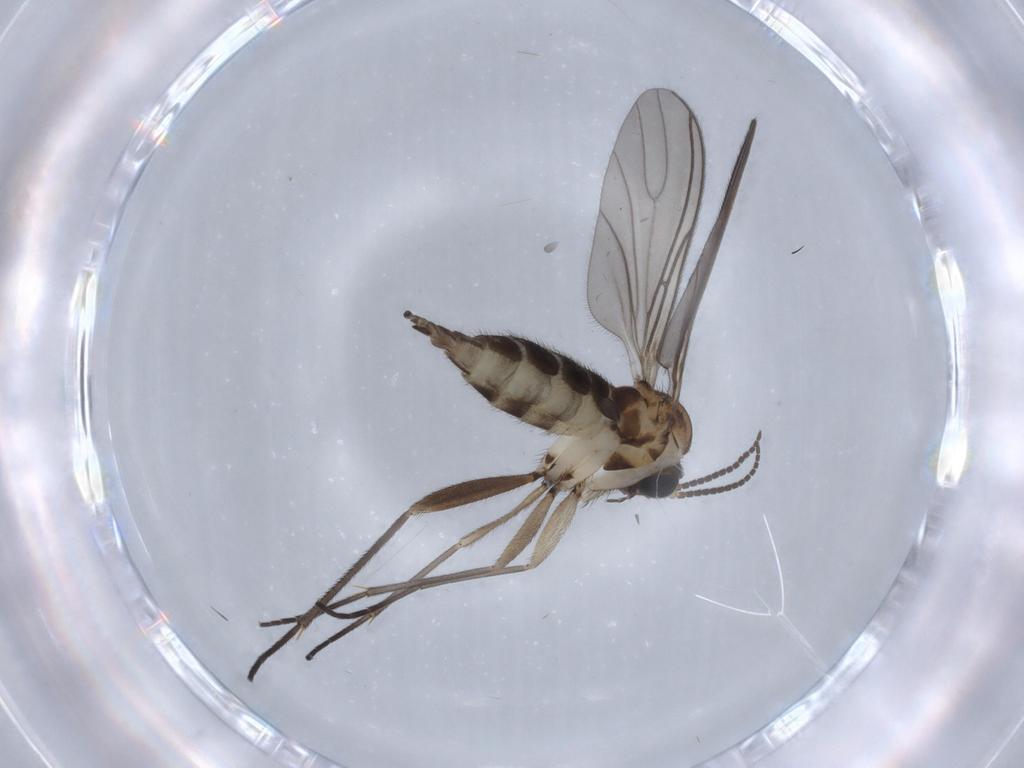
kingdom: Animalia
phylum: Arthropoda
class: Insecta
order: Diptera
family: Sciaridae
